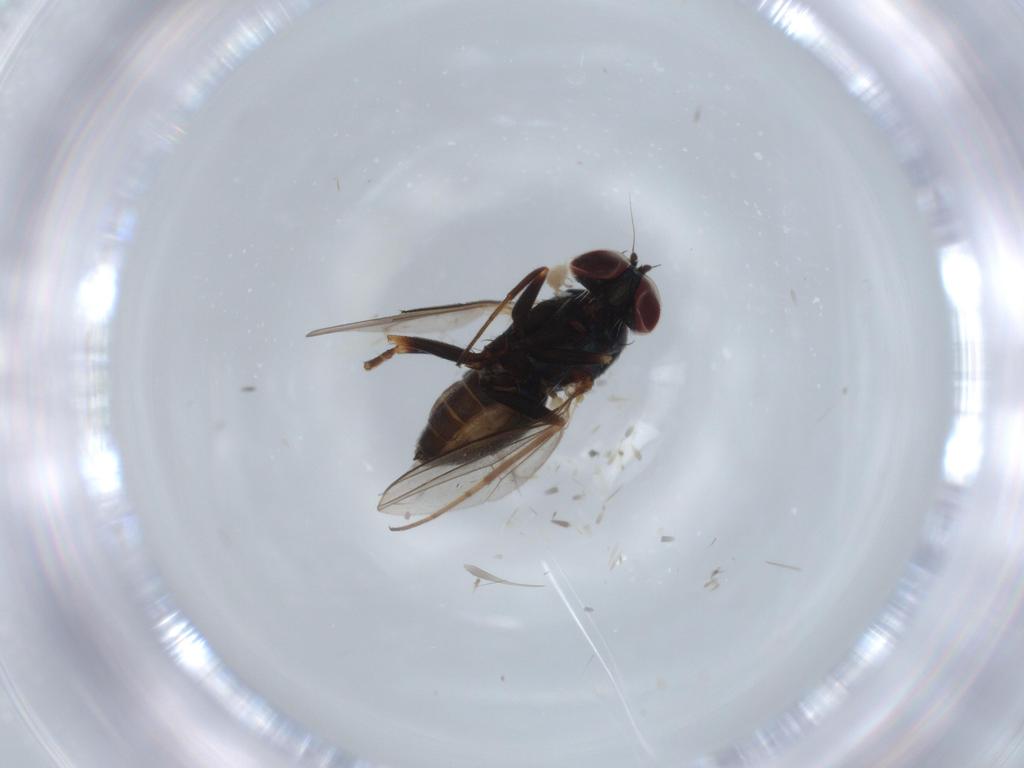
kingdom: Animalia
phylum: Arthropoda
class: Insecta
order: Diptera
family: Dolichopodidae
